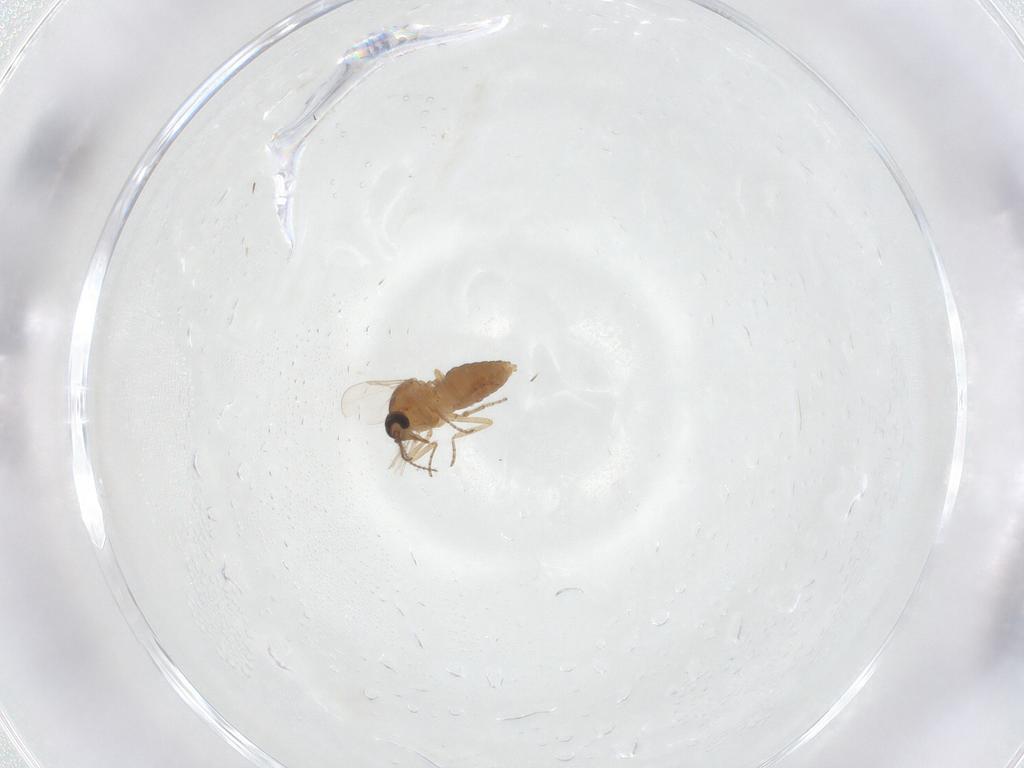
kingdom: Animalia
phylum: Arthropoda
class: Insecta
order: Diptera
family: Ceratopogonidae
